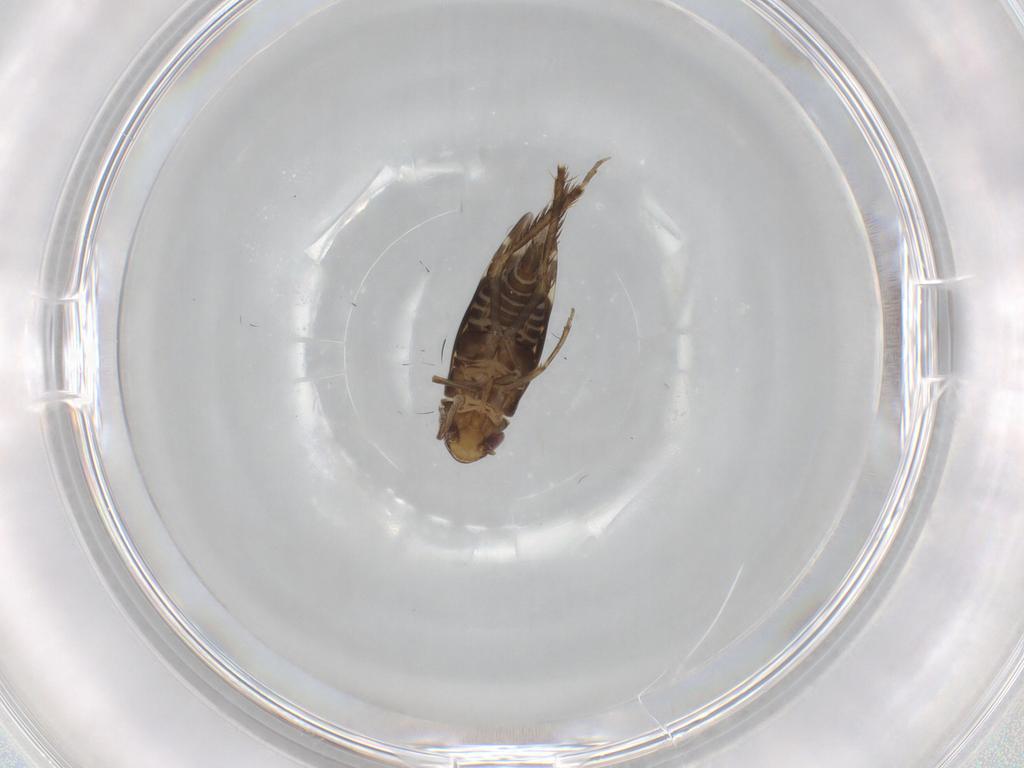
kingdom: Animalia
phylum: Arthropoda
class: Insecta
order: Hemiptera
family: Cicadellidae
